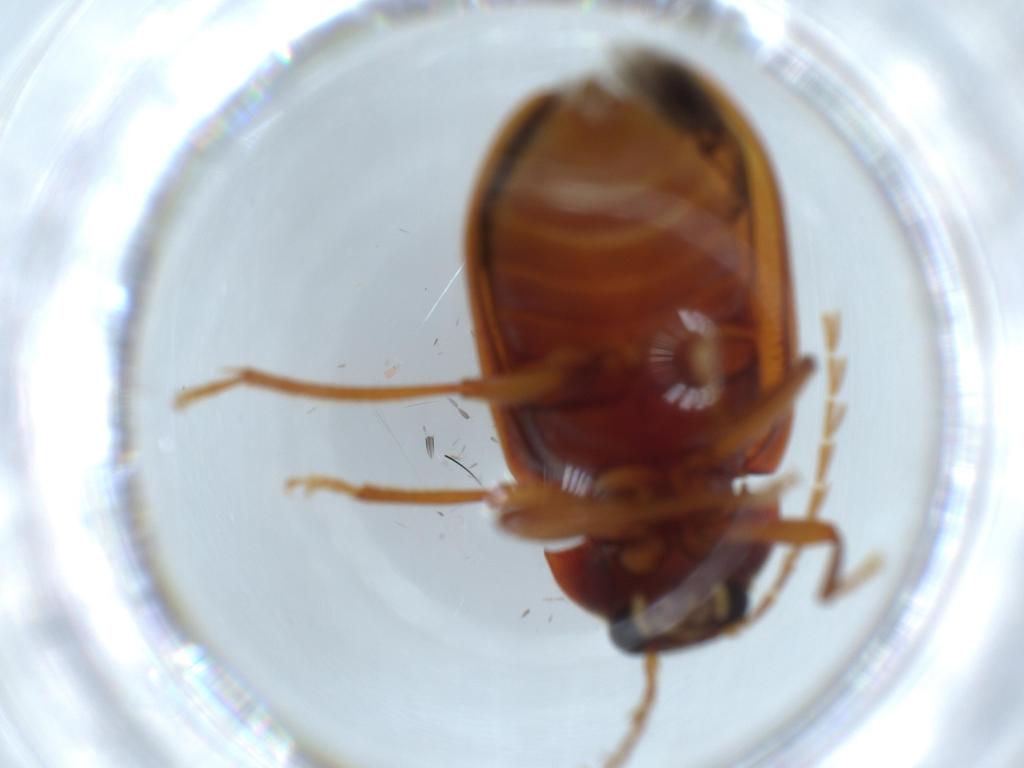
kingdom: Animalia
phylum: Arthropoda
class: Insecta
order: Coleoptera
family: Ptilodactylidae
